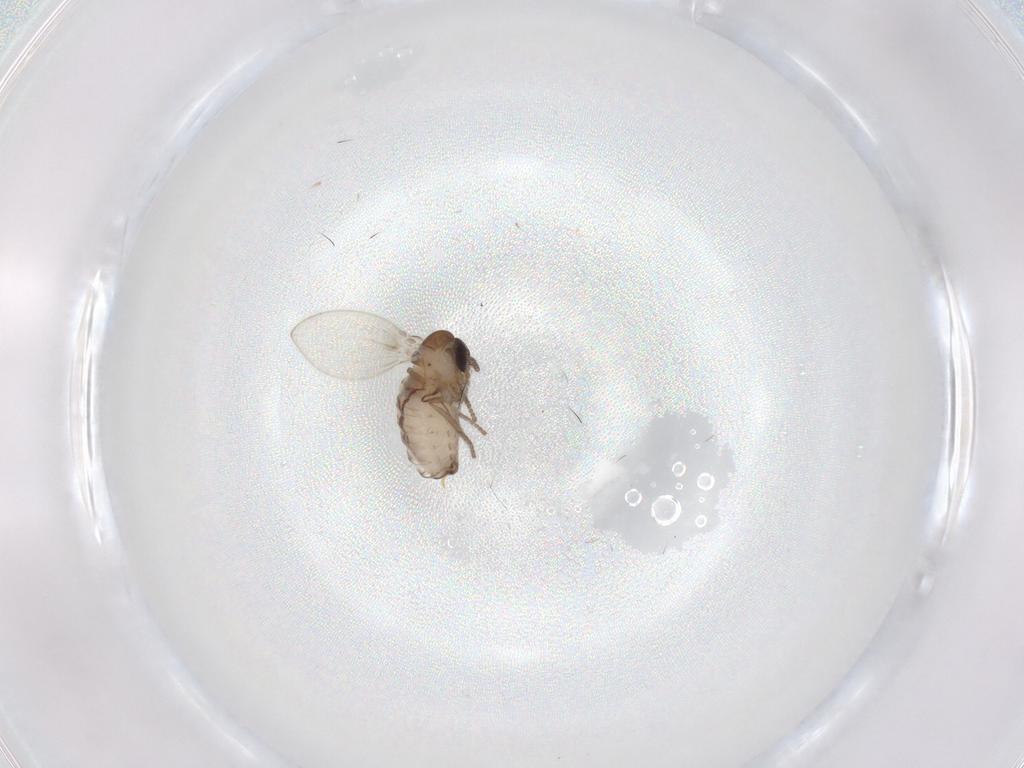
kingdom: Animalia
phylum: Arthropoda
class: Insecta
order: Diptera
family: Psychodidae
